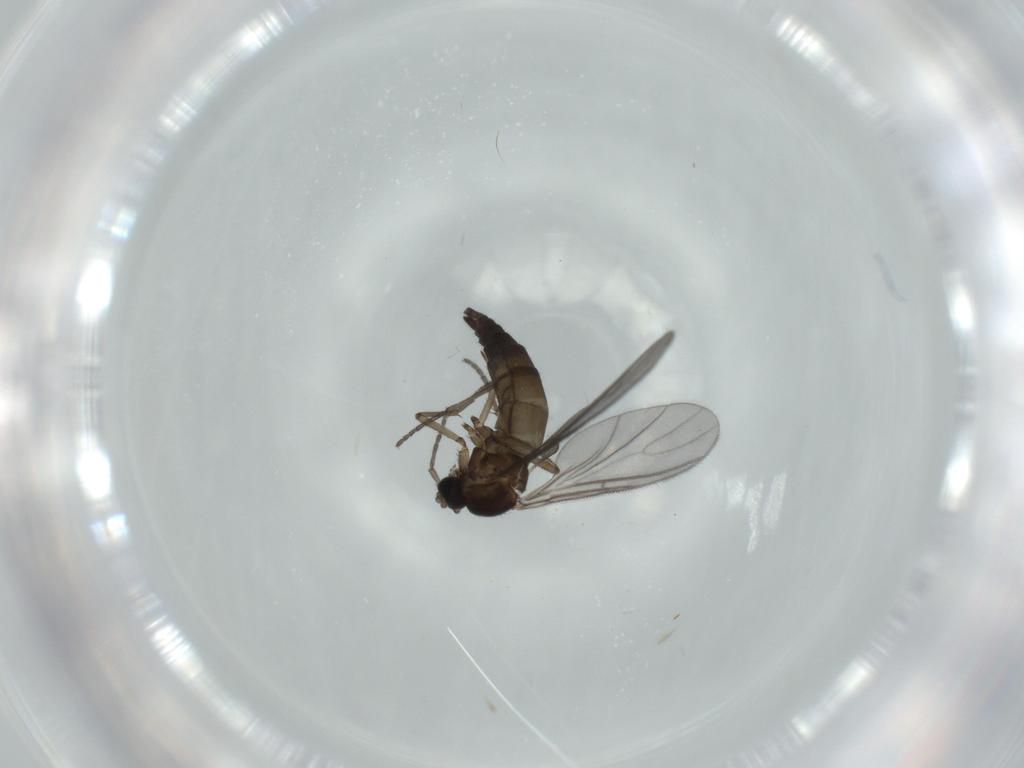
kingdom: Animalia
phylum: Arthropoda
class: Insecta
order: Diptera
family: Sciaridae
